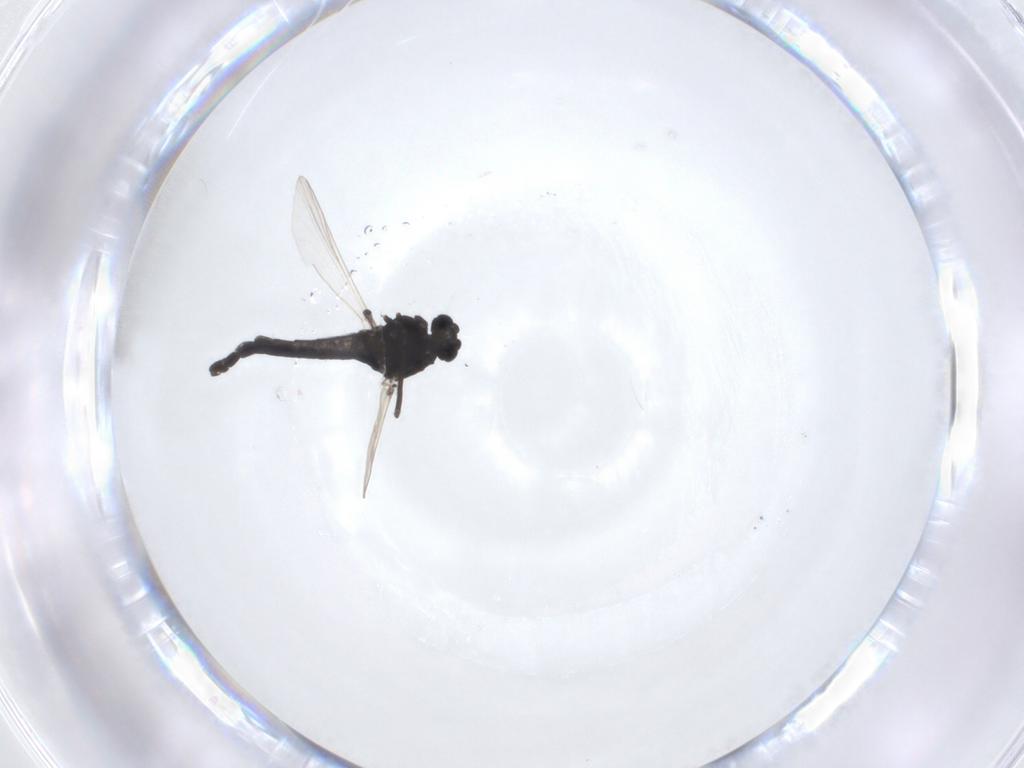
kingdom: Animalia
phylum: Arthropoda
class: Insecta
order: Diptera
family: Chironomidae
